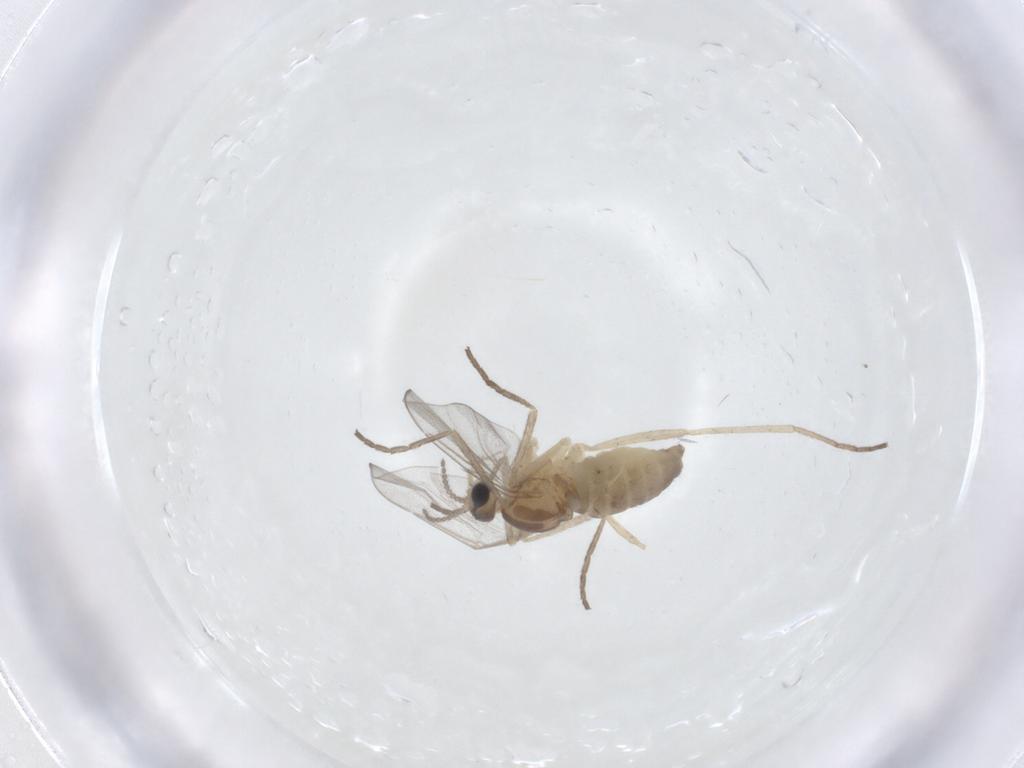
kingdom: Animalia
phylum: Arthropoda
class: Insecta
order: Diptera
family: Cecidomyiidae
